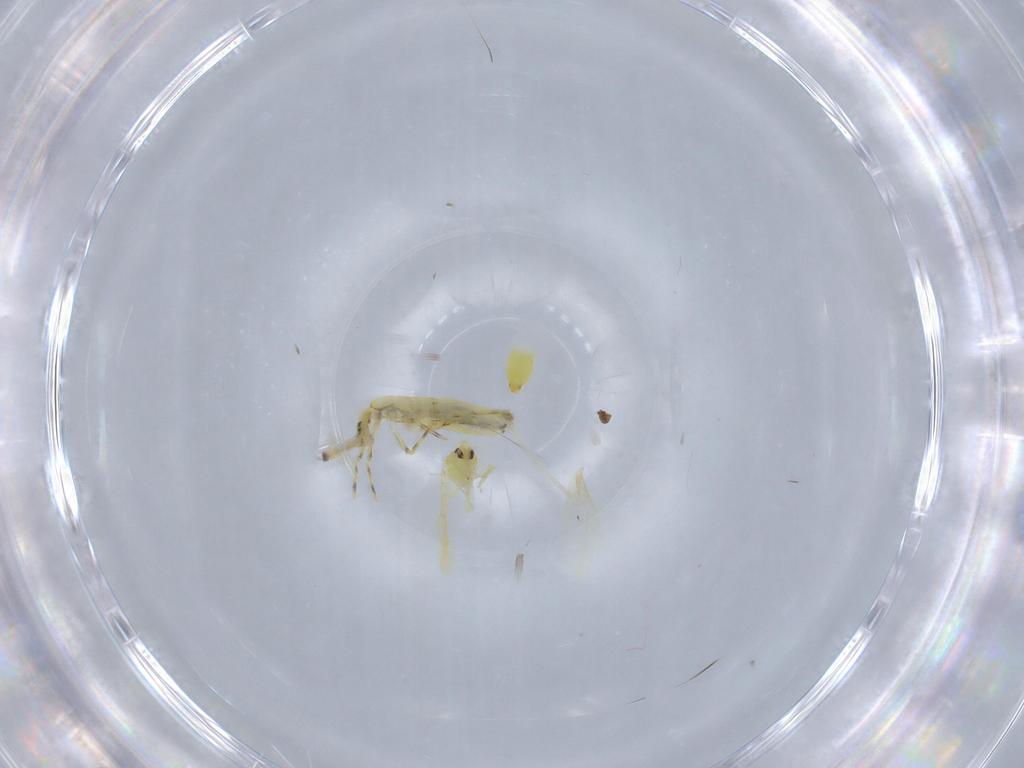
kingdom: Animalia
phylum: Arthropoda
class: Insecta
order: Hemiptera
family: Aleyrodidae
